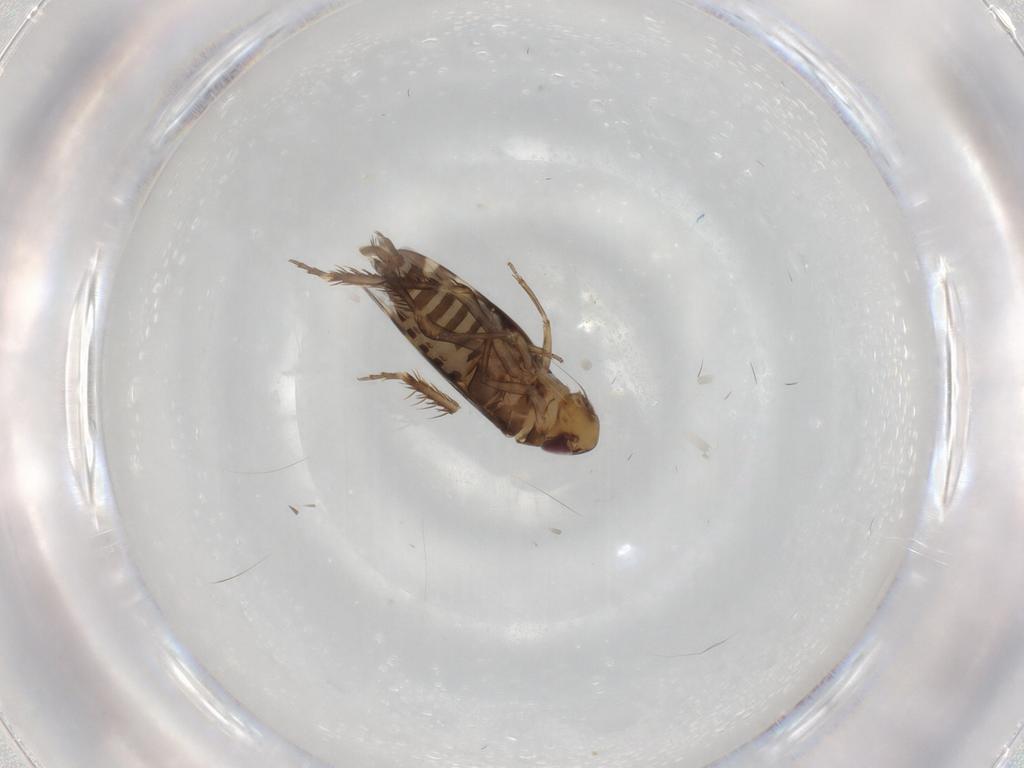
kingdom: Animalia
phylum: Arthropoda
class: Insecta
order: Hemiptera
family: Cicadellidae
